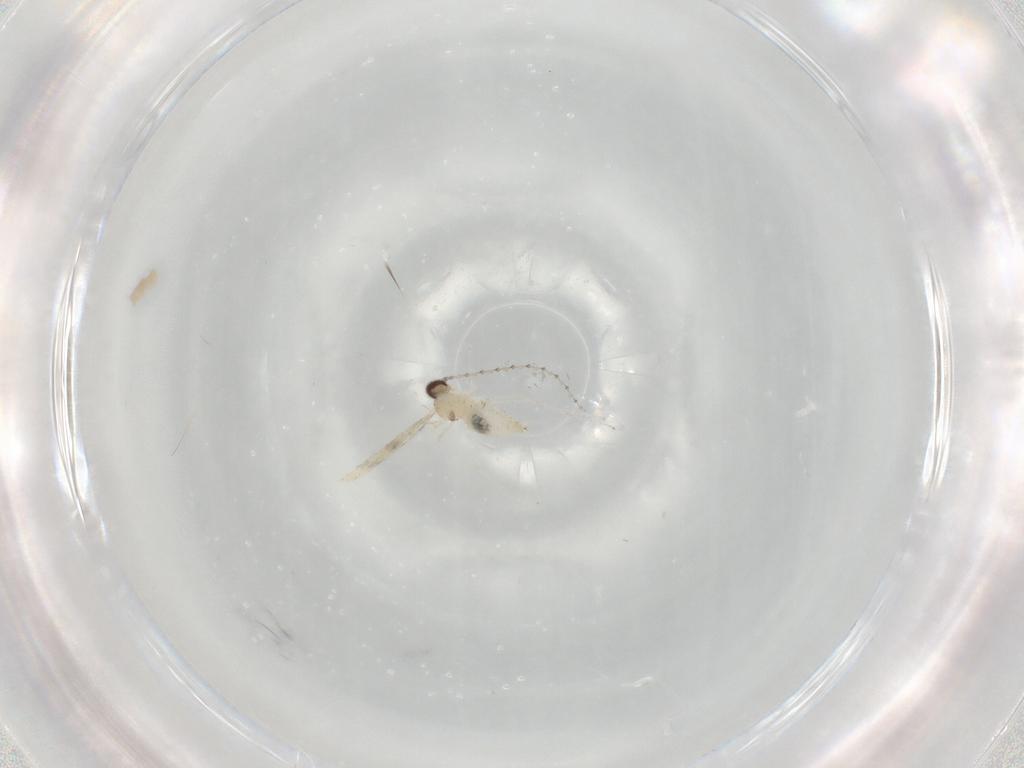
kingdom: Animalia
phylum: Arthropoda
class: Insecta
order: Diptera
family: Cecidomyiidae
